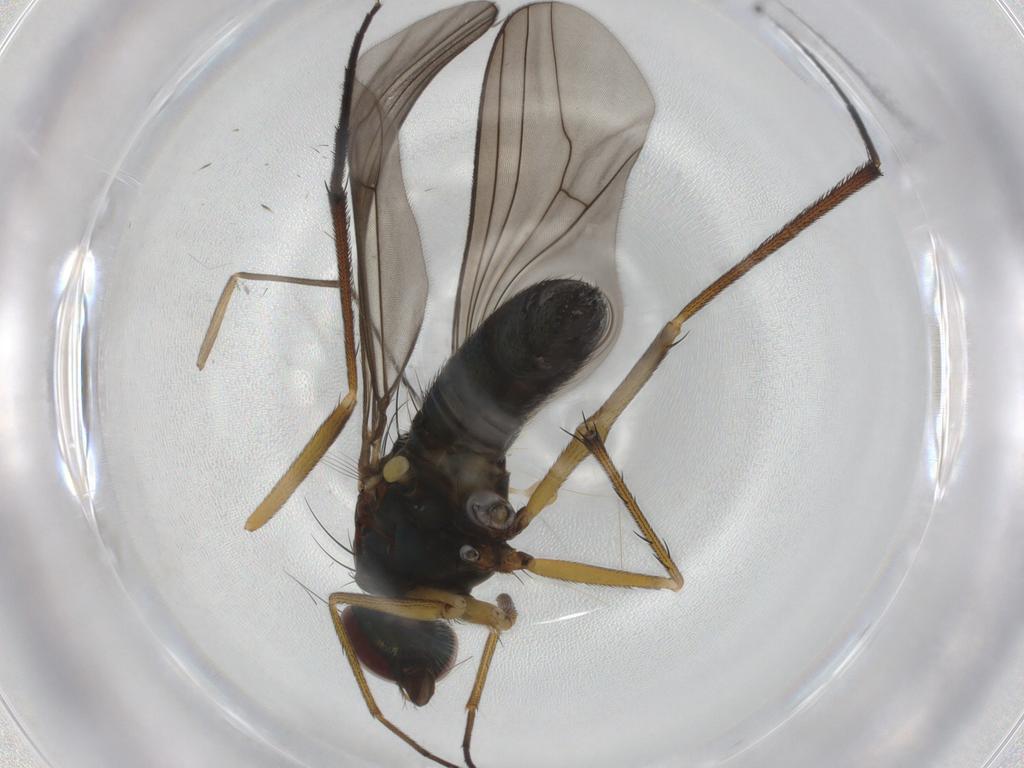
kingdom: Animalia
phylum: Arthropoda
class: Insecta
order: Diptera
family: Dolichopodidae
